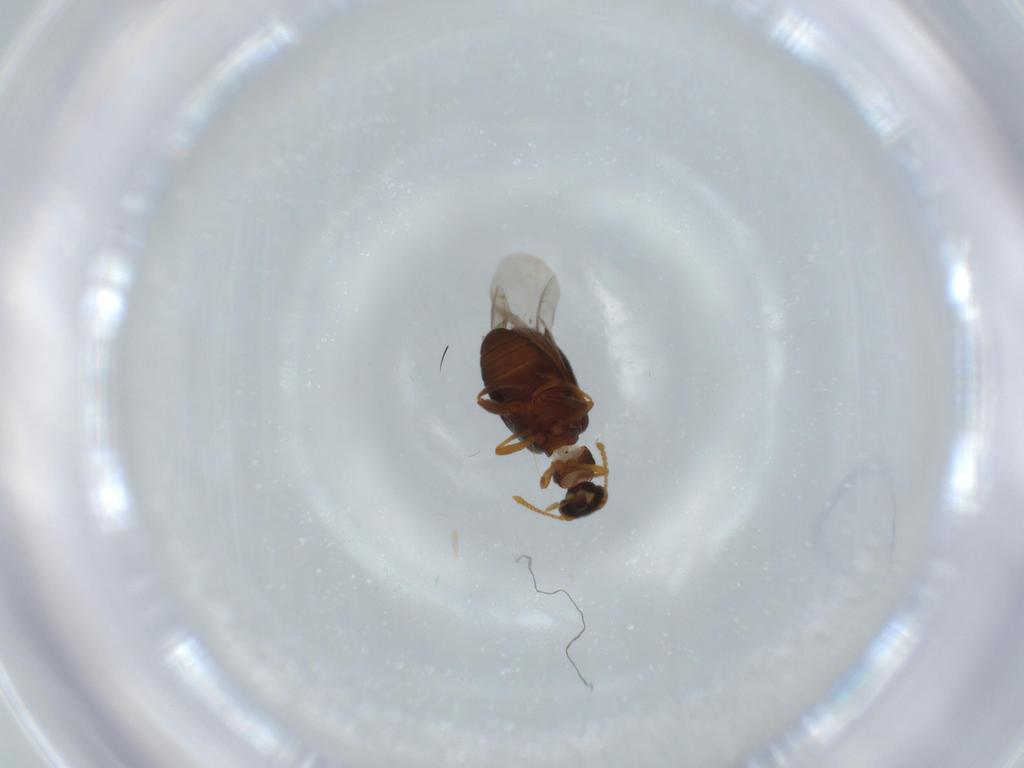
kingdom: Animalia
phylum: Arthropoda
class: Insecta
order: Coleoptera
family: Aderidae
